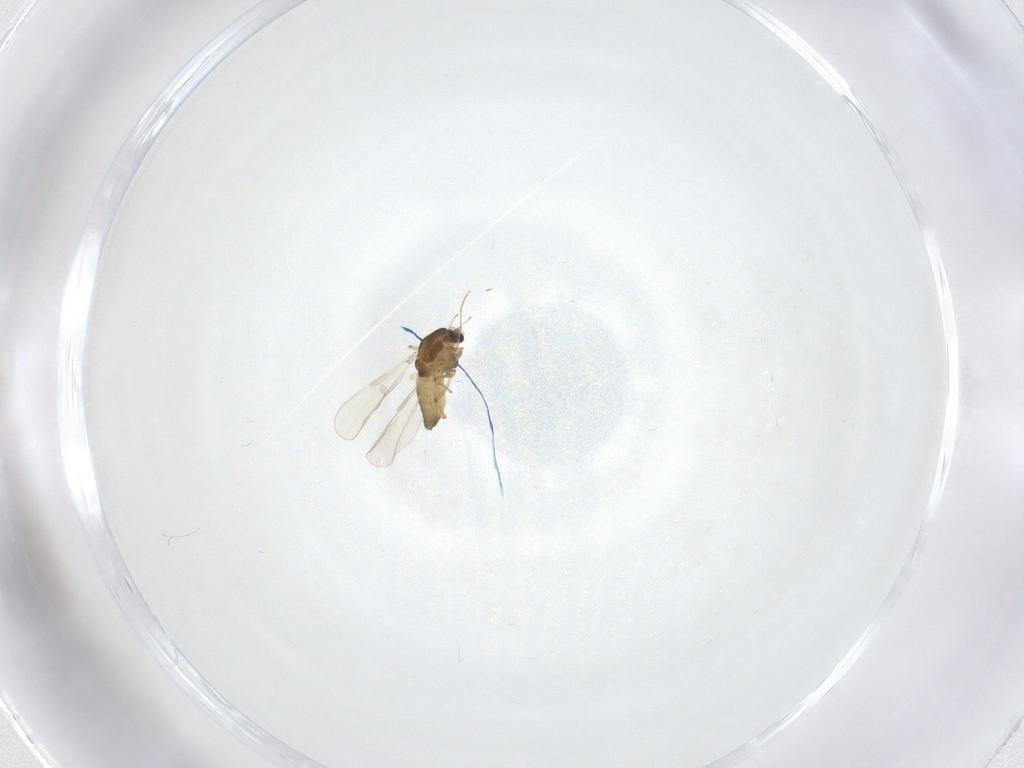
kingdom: Animalia
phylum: Arthropoda
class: Insecta
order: Diptera
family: Chironomidae
